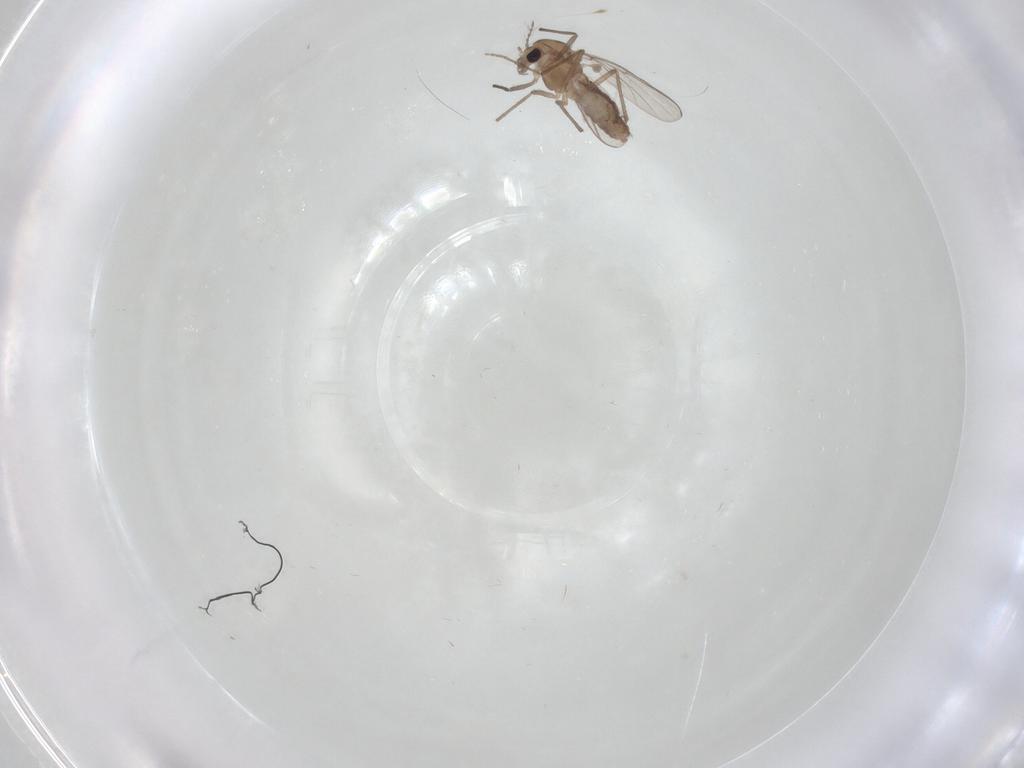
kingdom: Animalia
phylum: Arthropoda
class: Insecta
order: Diptera
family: Chironomidae
